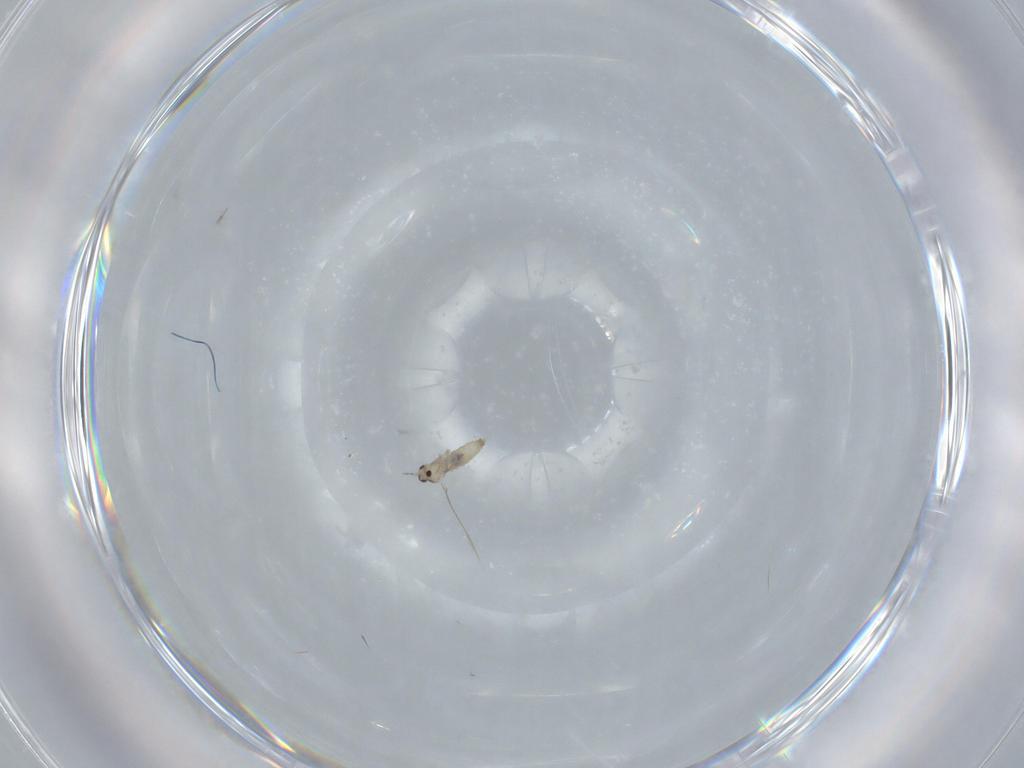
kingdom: Animalia
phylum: Arthropoda
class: Insecta
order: Diptera
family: Cecidomyiidae
